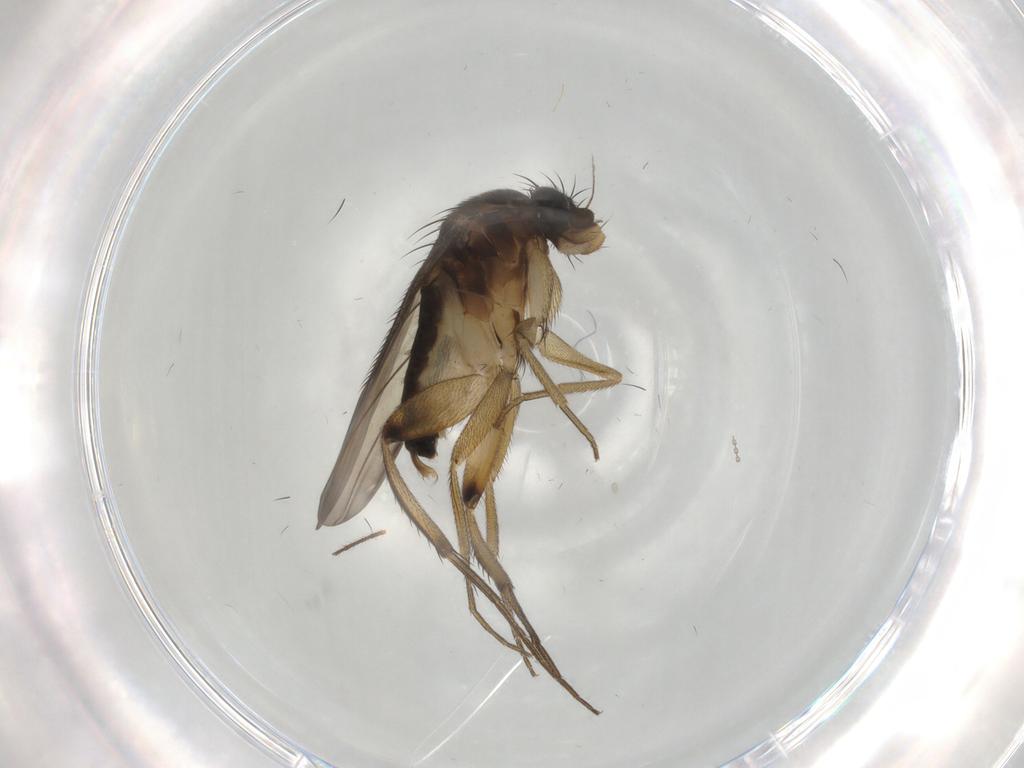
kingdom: Animalia
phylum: Arthropoda
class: Insecta
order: Diptera
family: Phoridae
